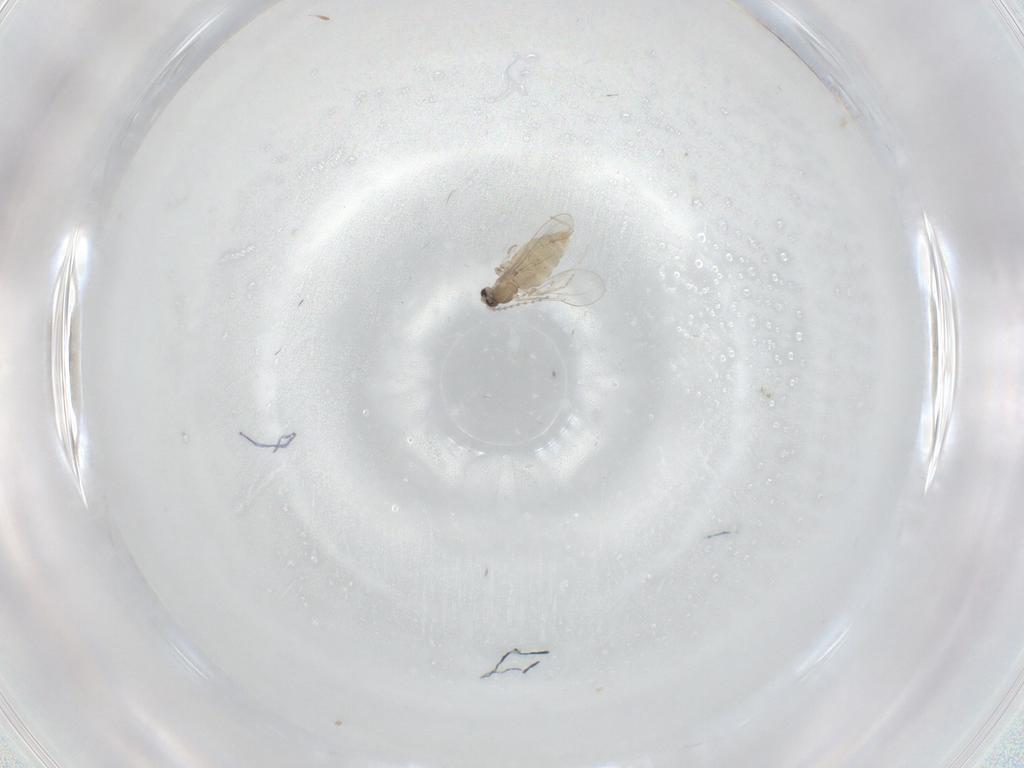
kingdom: Animalia
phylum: Arthropoda
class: Insecta
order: Diptera
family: Cecidomyiidae
